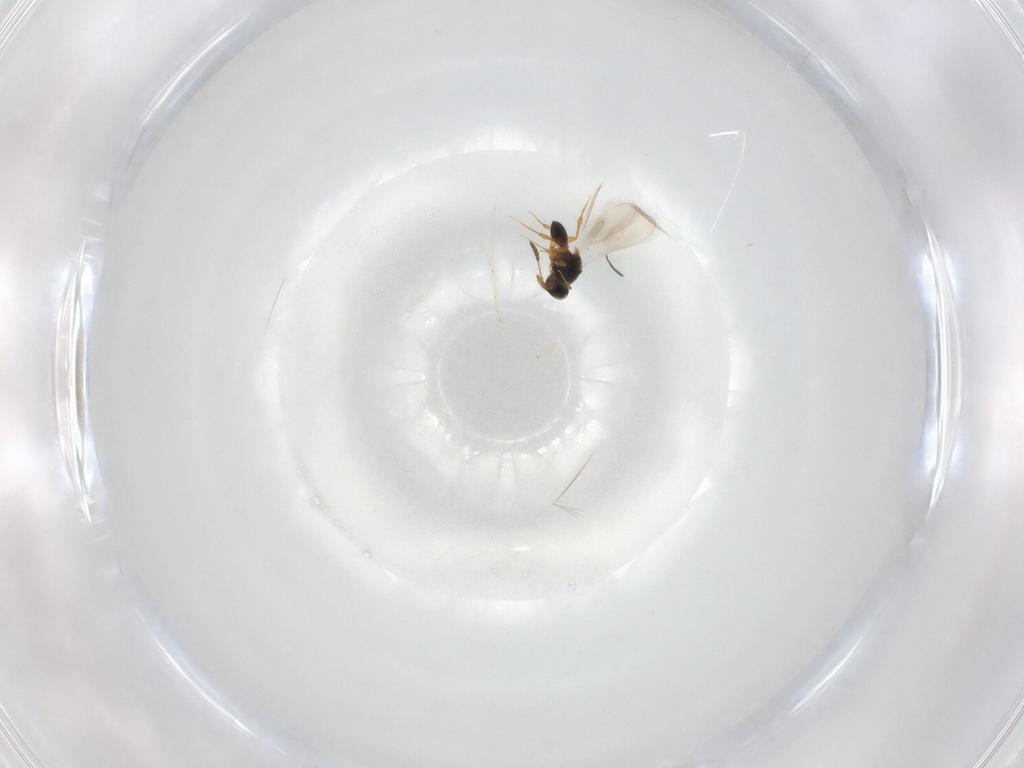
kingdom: Animalia
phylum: Arthropoda
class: Insecta
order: Hymenoptera
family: Platygastridae
